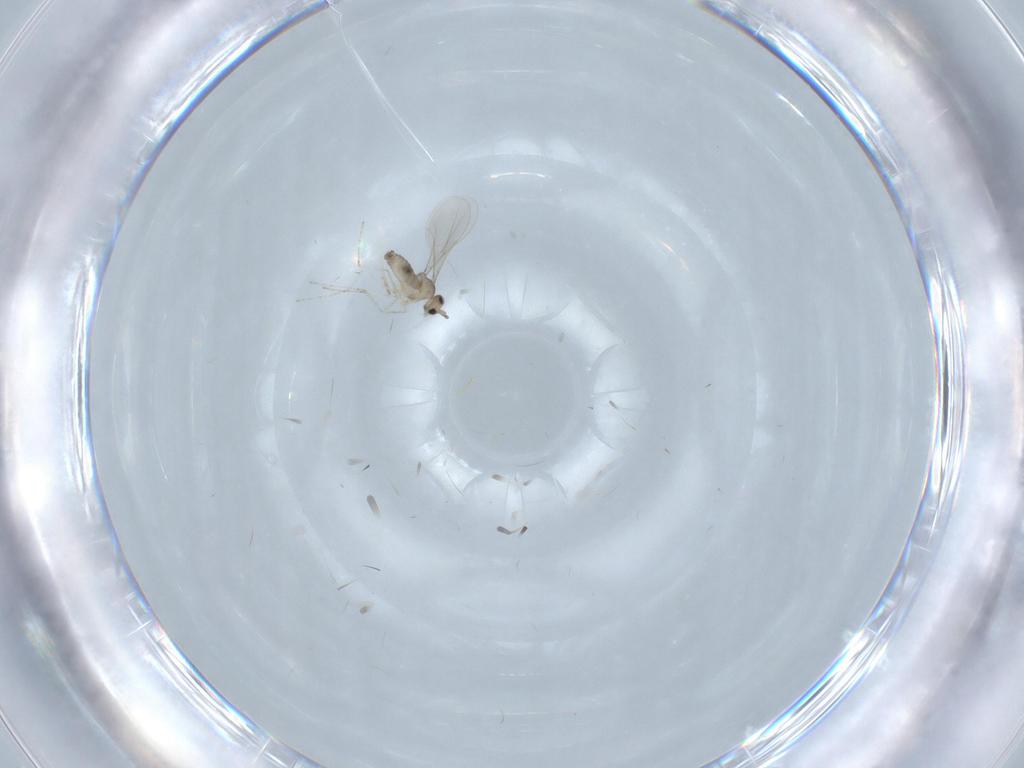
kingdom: Animalia
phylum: Arthropoda
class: Insecta
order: Diptera
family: Cecidomyiidae
